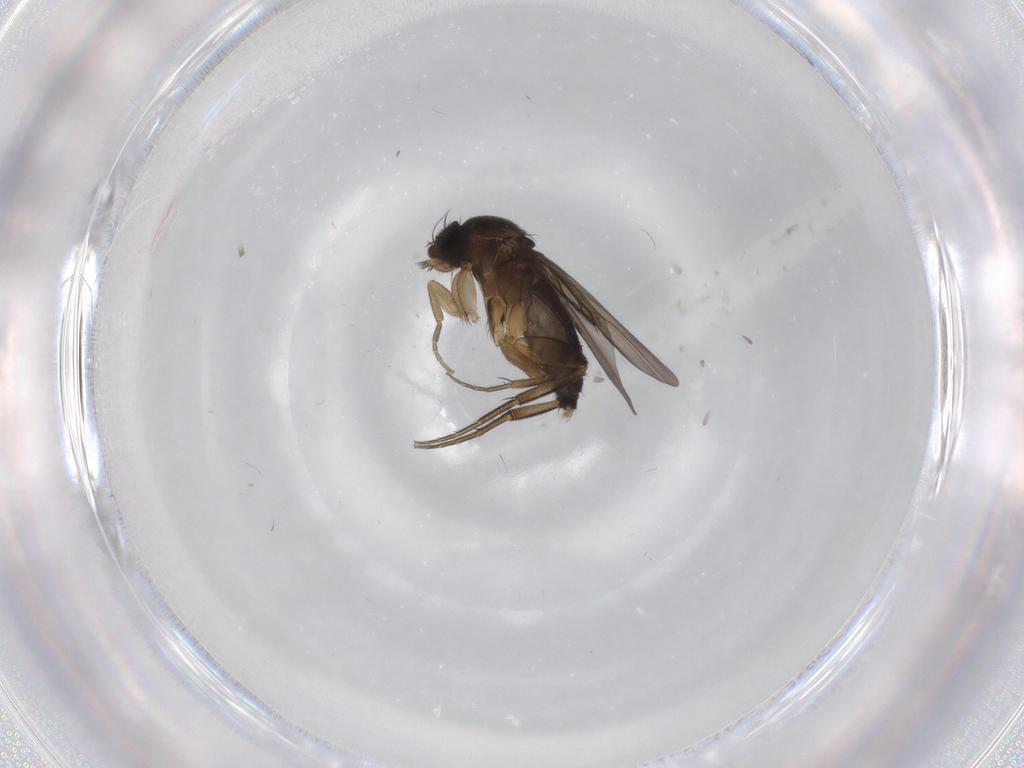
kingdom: Animalia
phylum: Arthropoda
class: Insecta
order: Diptera
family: Phoridae
